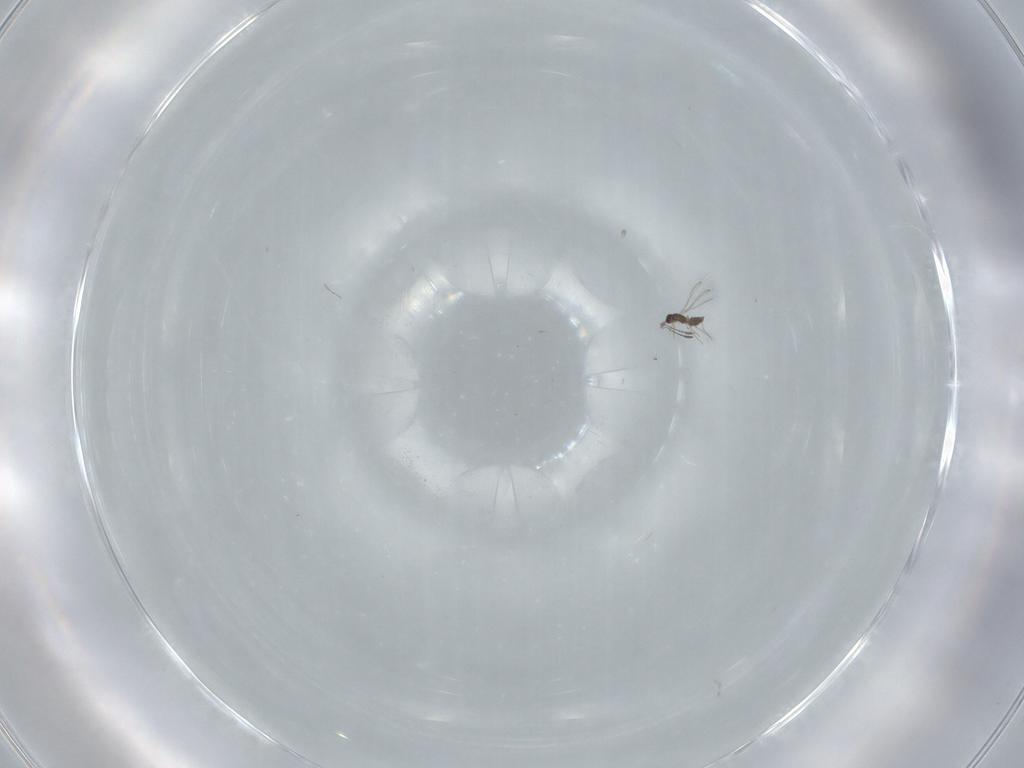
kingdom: Animalia
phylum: Arthropoda
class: Insecta
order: Hymenoptera
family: Mymaridae
